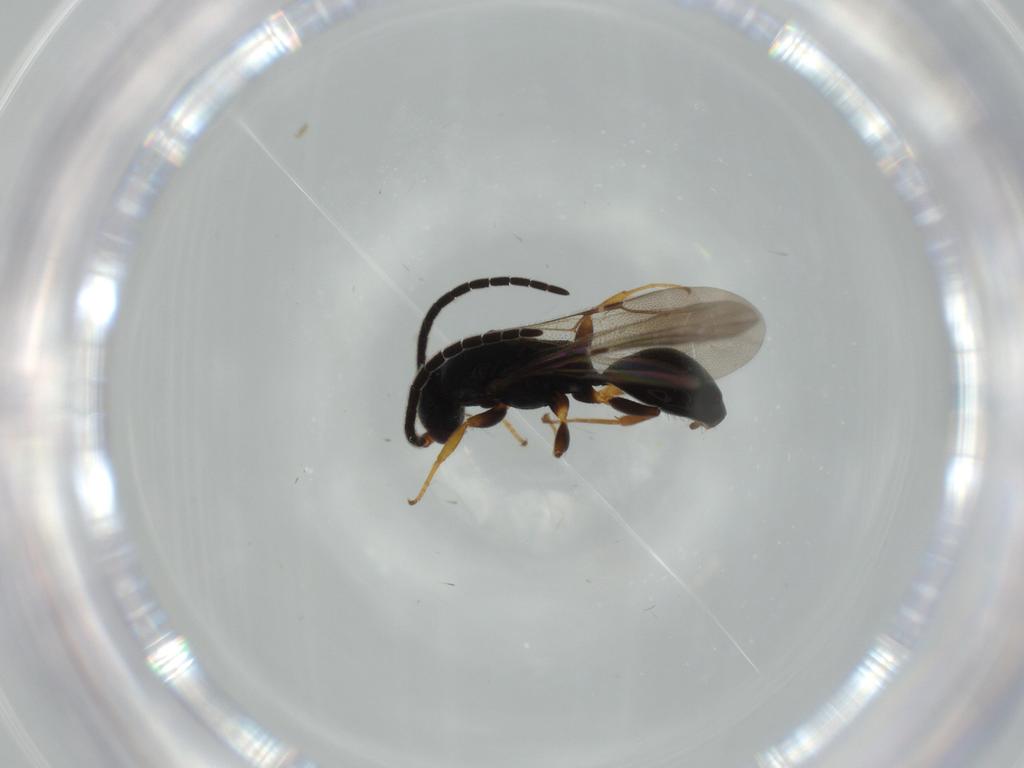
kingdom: Animalia
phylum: Arthropoda
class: Insecta
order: Hymenoptera
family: Bethylidae
